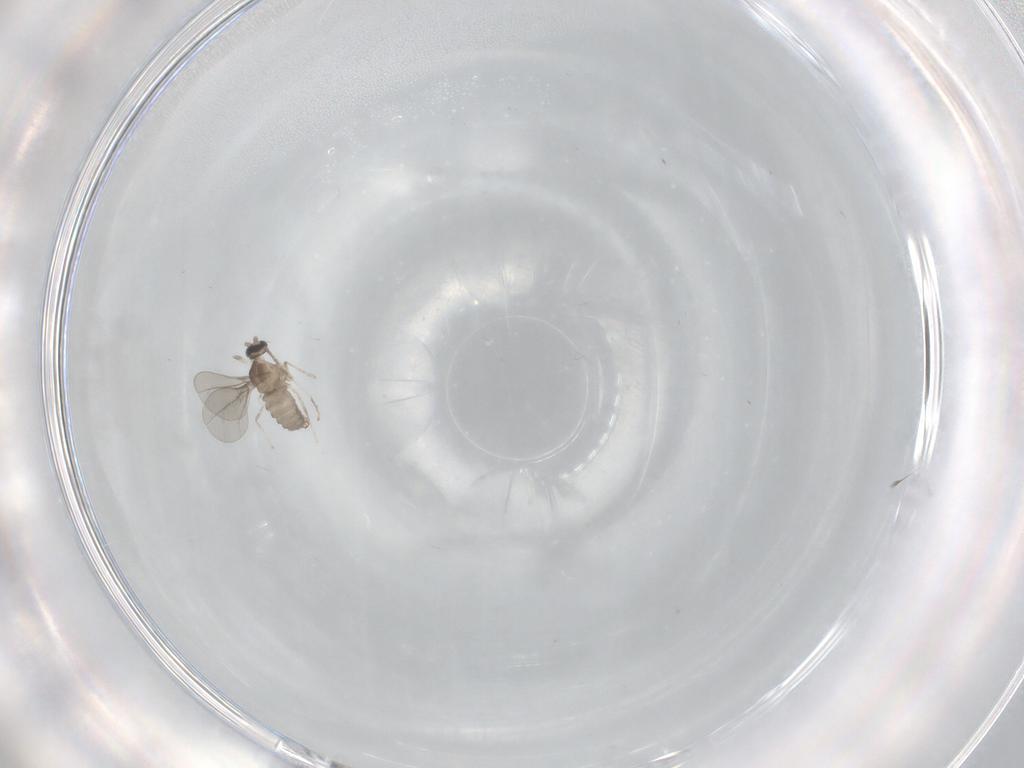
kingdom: Animalia
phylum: Arthropoda
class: Insecta
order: Diptera
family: Cecidomyiidae
